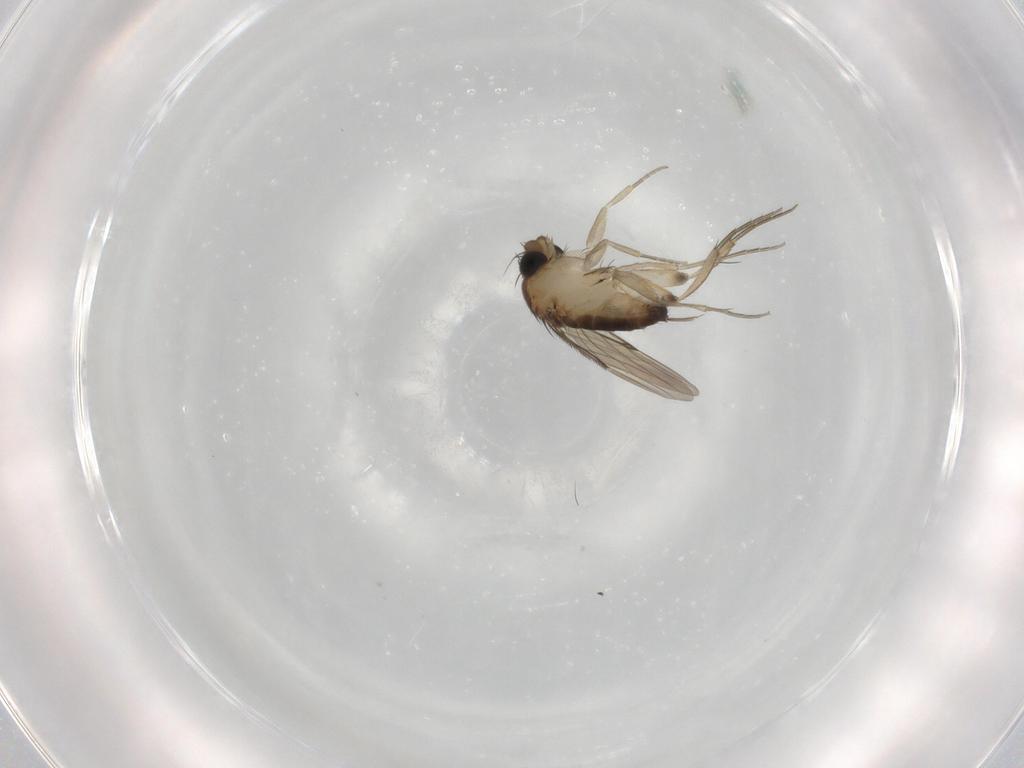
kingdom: Animalia
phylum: Arthropoda
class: Insecta
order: Diptera
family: Phoridae
